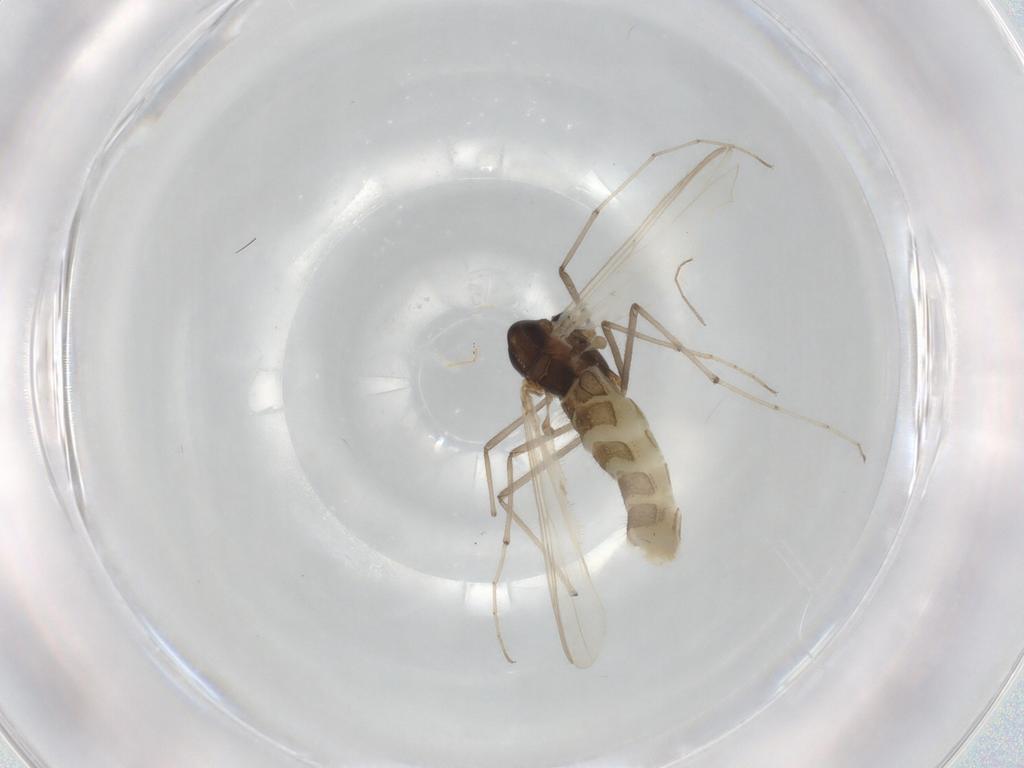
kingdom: Animalia
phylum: Arthropoda
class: Insecta
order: Diptera
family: Chironomidae
